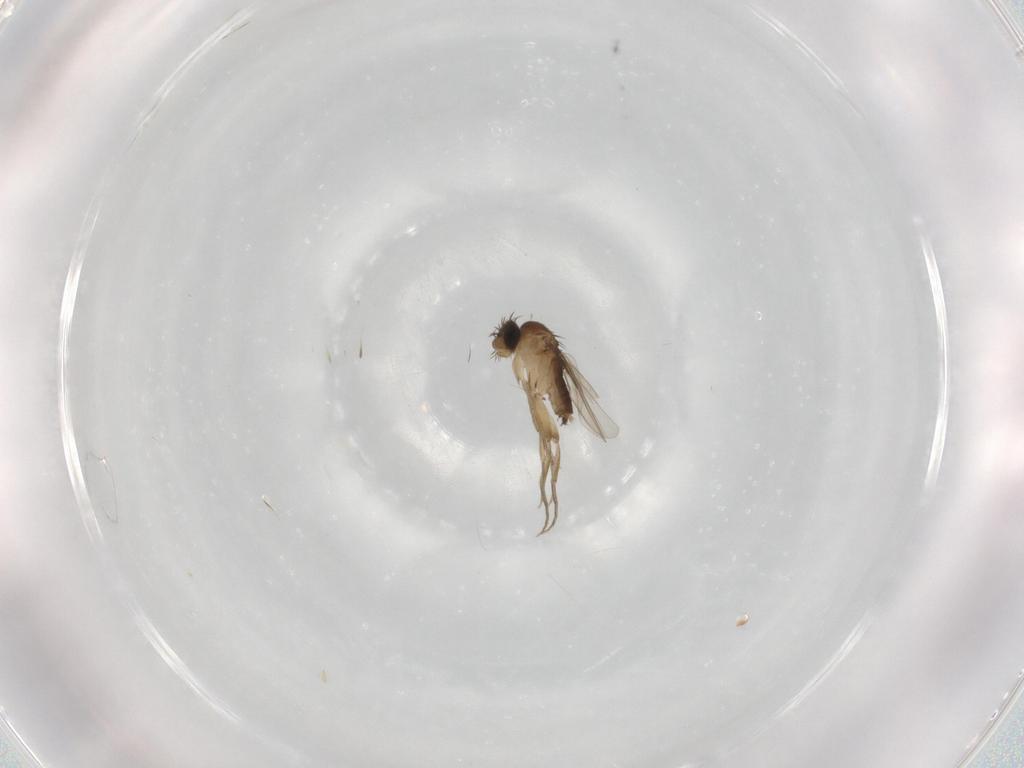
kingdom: Animalia
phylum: Arthropoda
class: Insecta
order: Diptera
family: Phoridae
